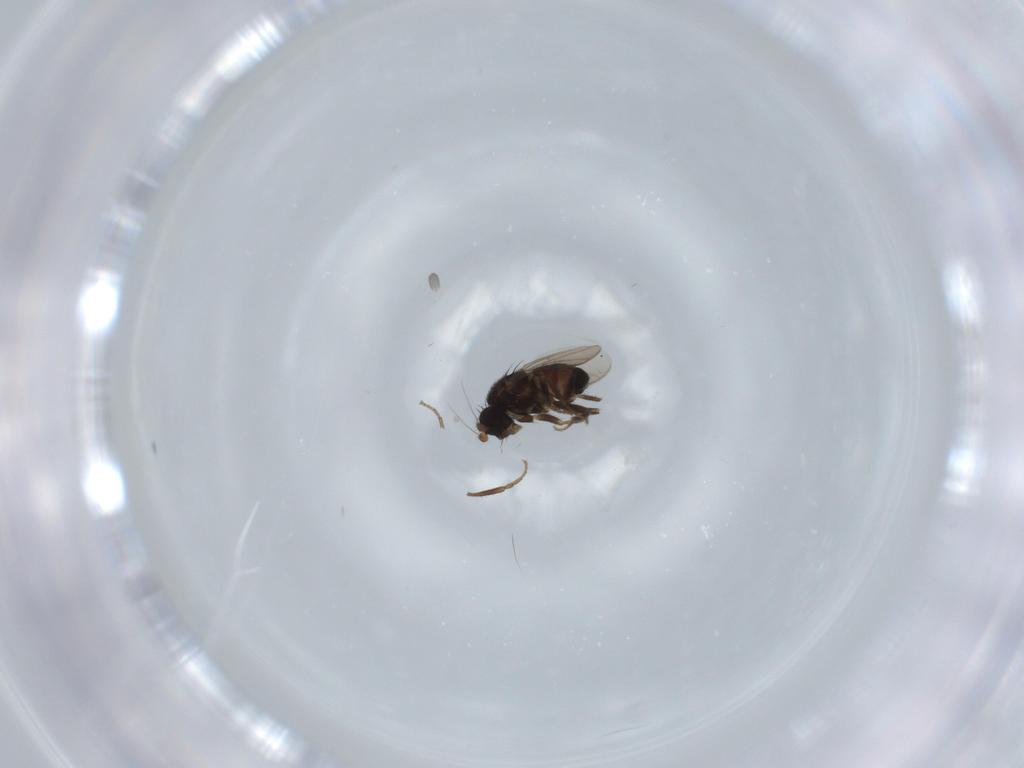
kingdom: Animalia
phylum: Arthropoda
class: Insecta
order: Diptera
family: Sphaeroceridae
